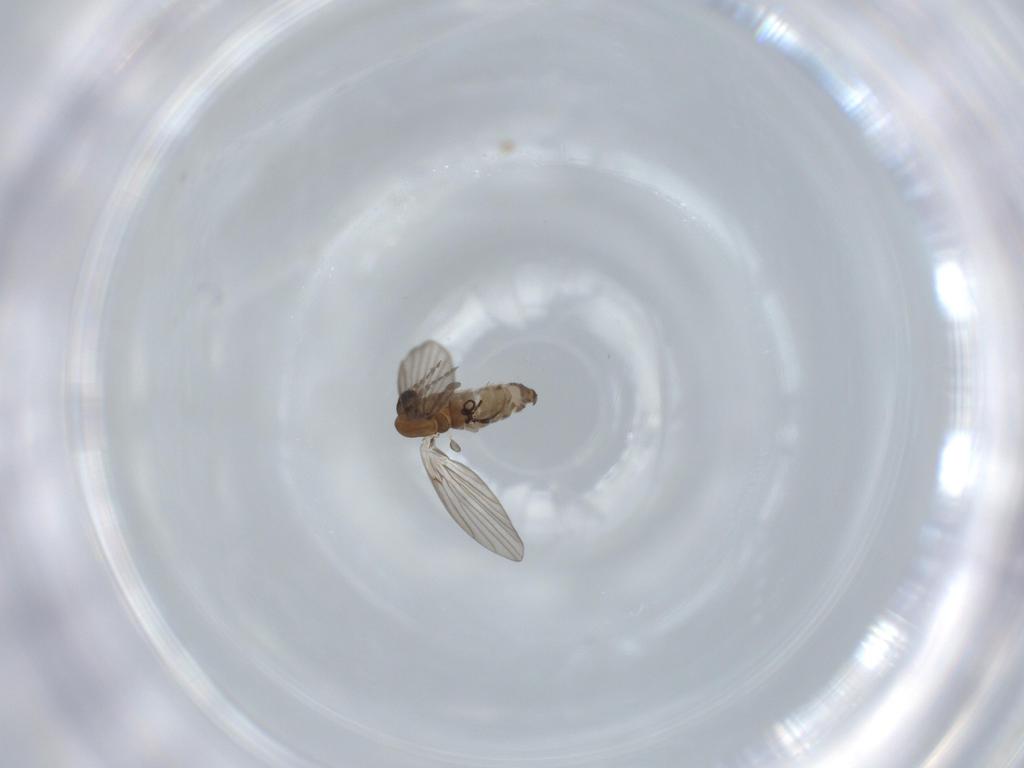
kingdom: Animalia
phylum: Arthropoda
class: Insecta
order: Diptera
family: Psychodidae
